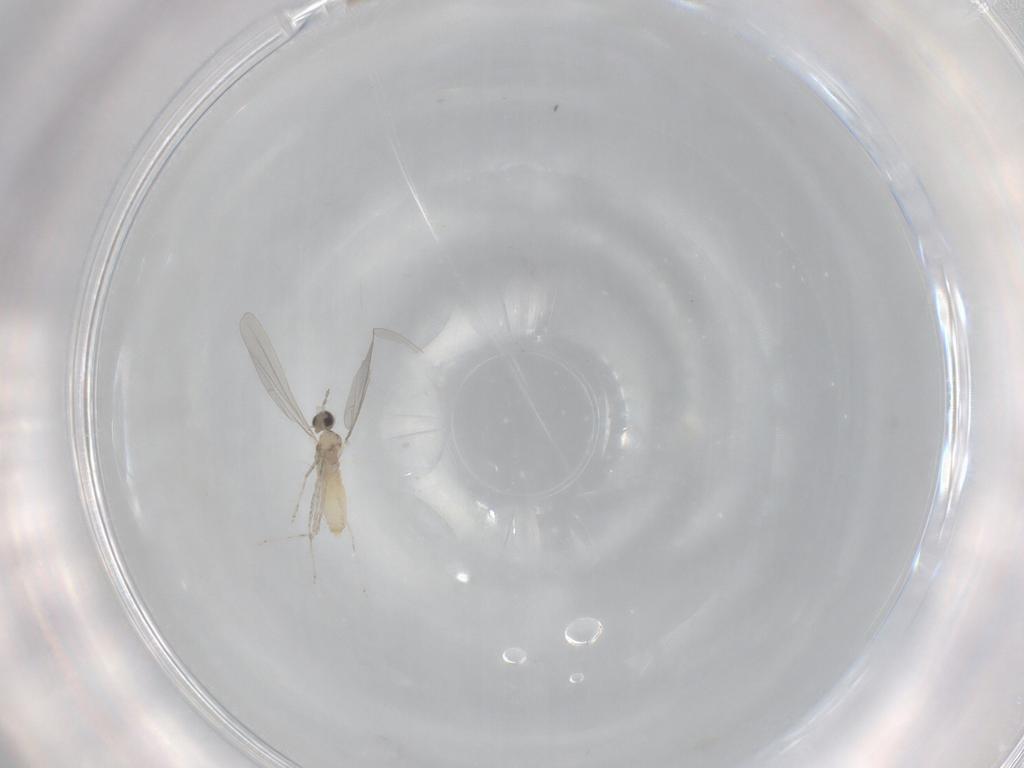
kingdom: Animalia
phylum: Arthropoda
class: Insecta
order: Diptera
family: Cecidomyiidae
